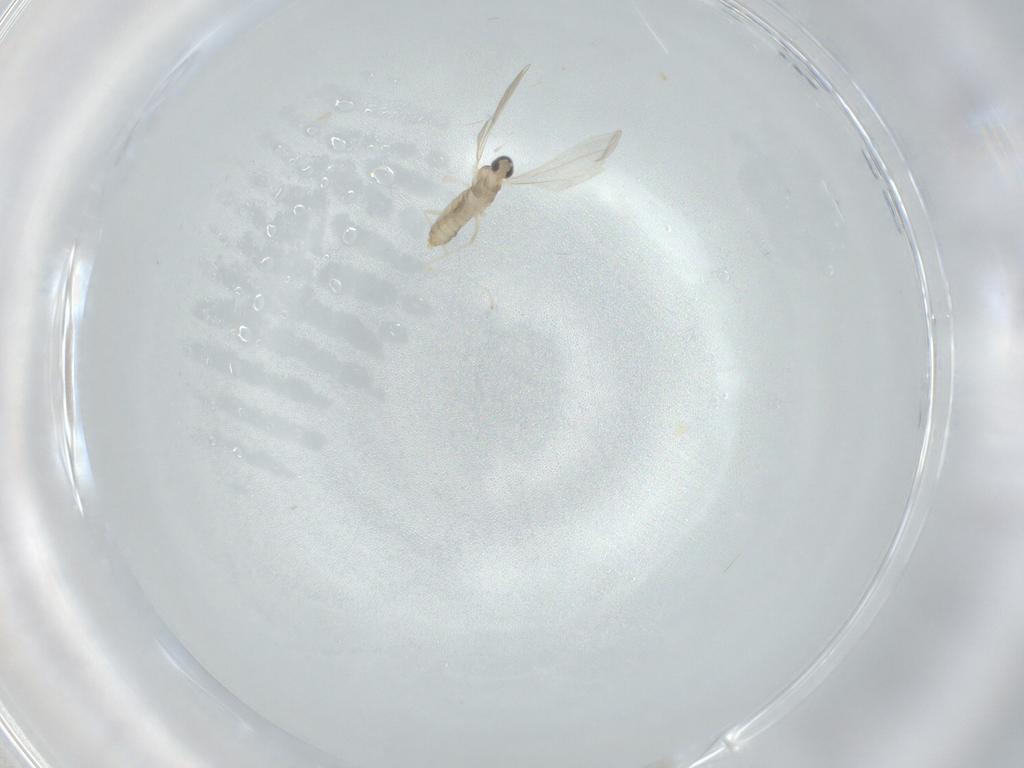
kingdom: Animalia
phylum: Arthropoda
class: Insecta
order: Diptera
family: Cecidomyiidae
